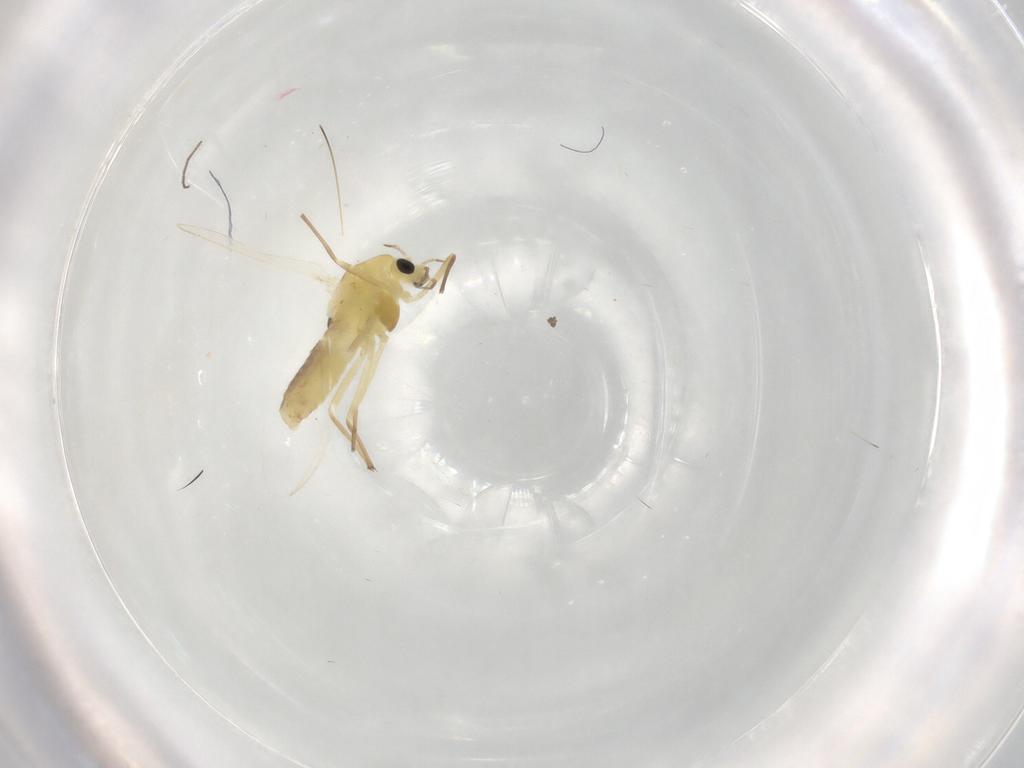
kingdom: Animalia
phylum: Arthropoda
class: Insecta
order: Diptera
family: Chironomidae
